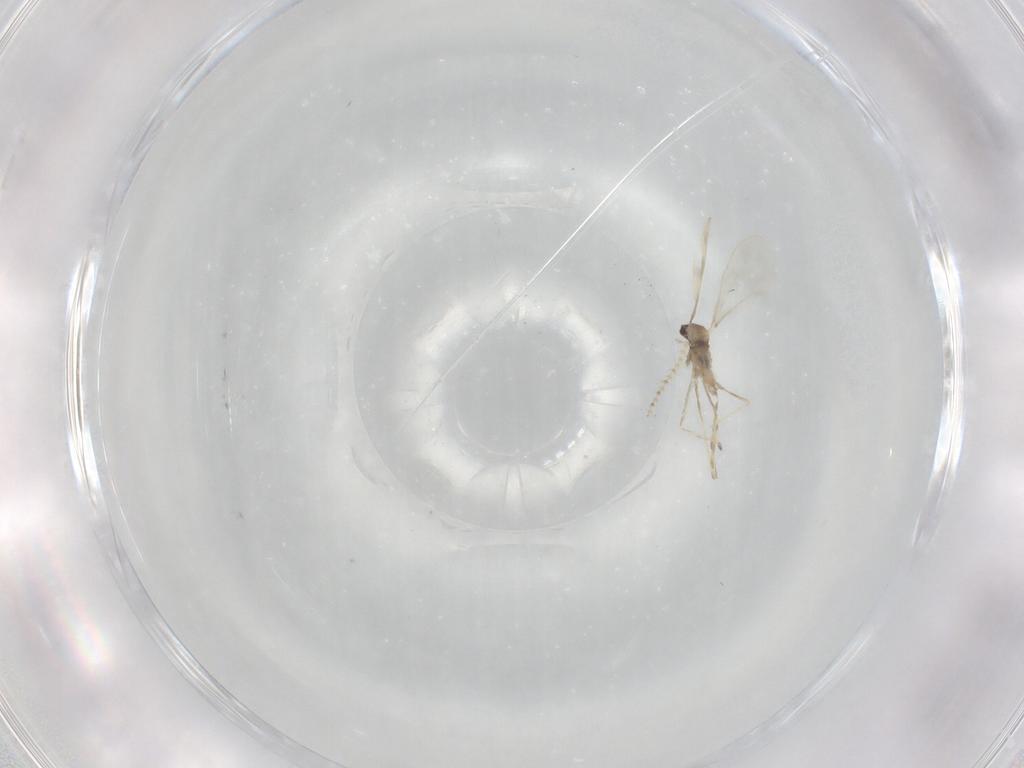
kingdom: Animalia
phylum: Arthropoda
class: Insecta
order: Diptera
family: Cecidomyiidae
